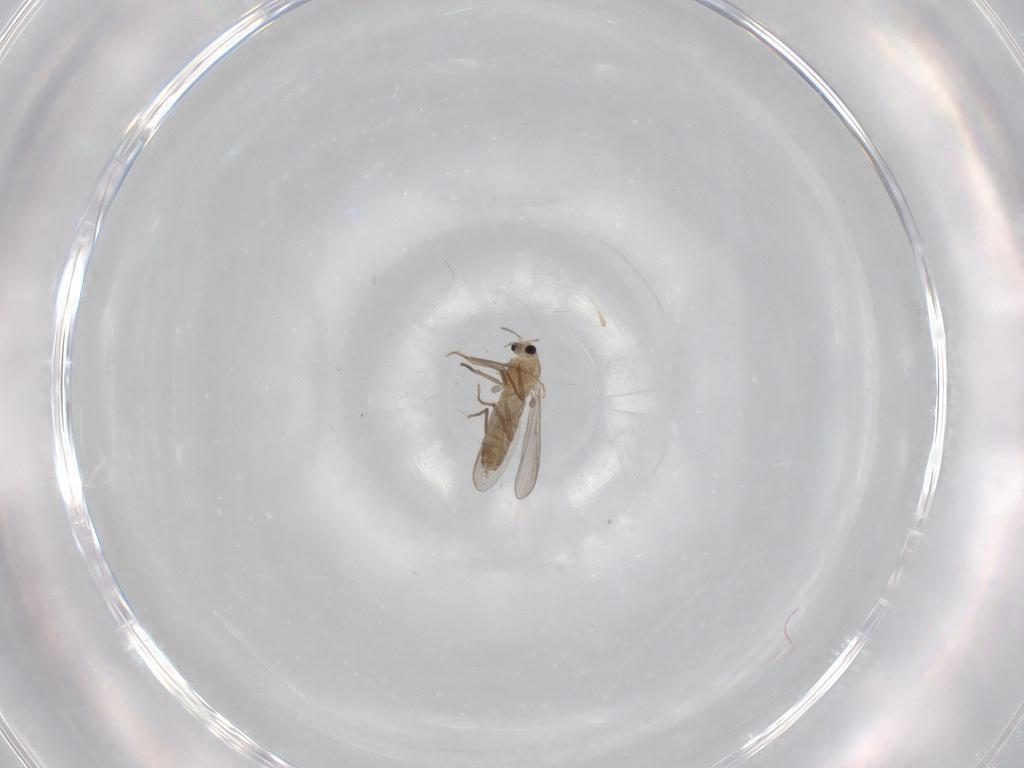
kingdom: Animalia
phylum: Arthropoda
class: Insecta
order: Diptera
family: Chironomidae
